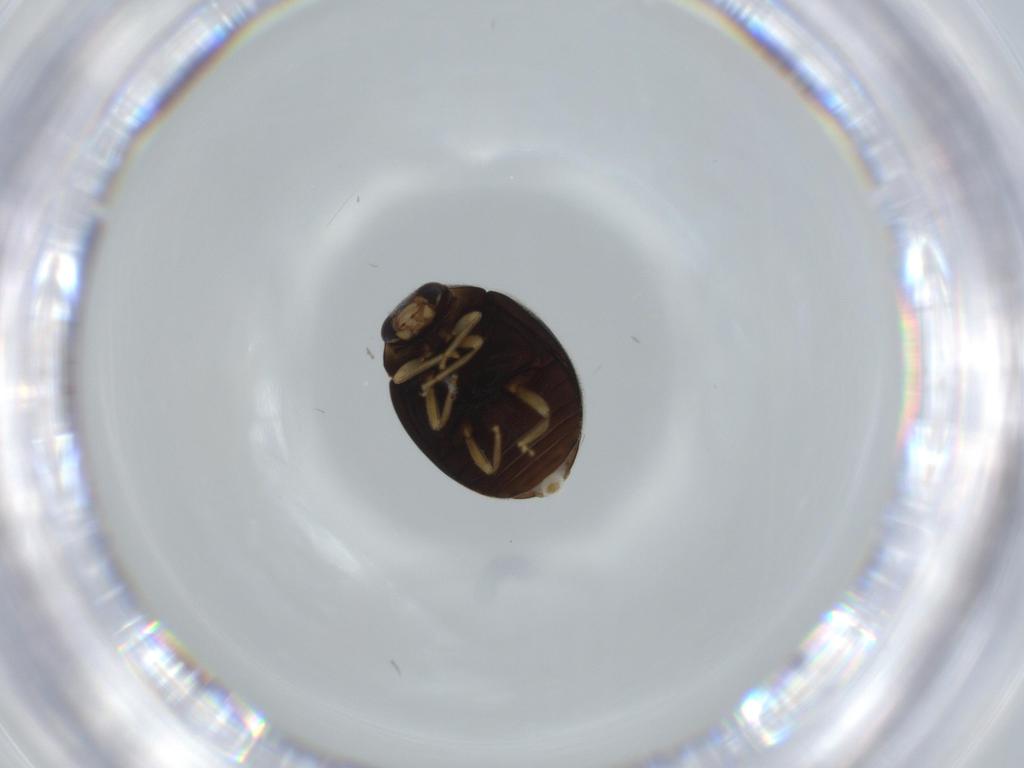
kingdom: Animalia
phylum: Arthropoda
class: Insecta
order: Coleoptera
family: Coccinellidae
